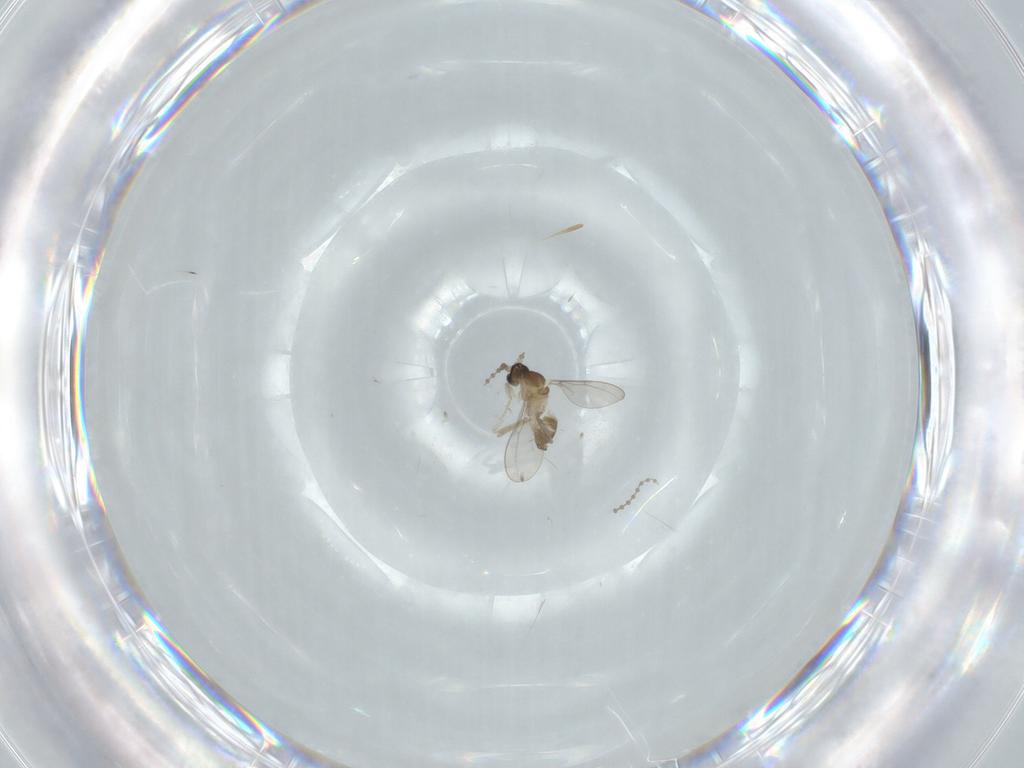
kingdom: Animalia
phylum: Arthropoda
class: Insecta
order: Diptera
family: Cecidomyiidae
